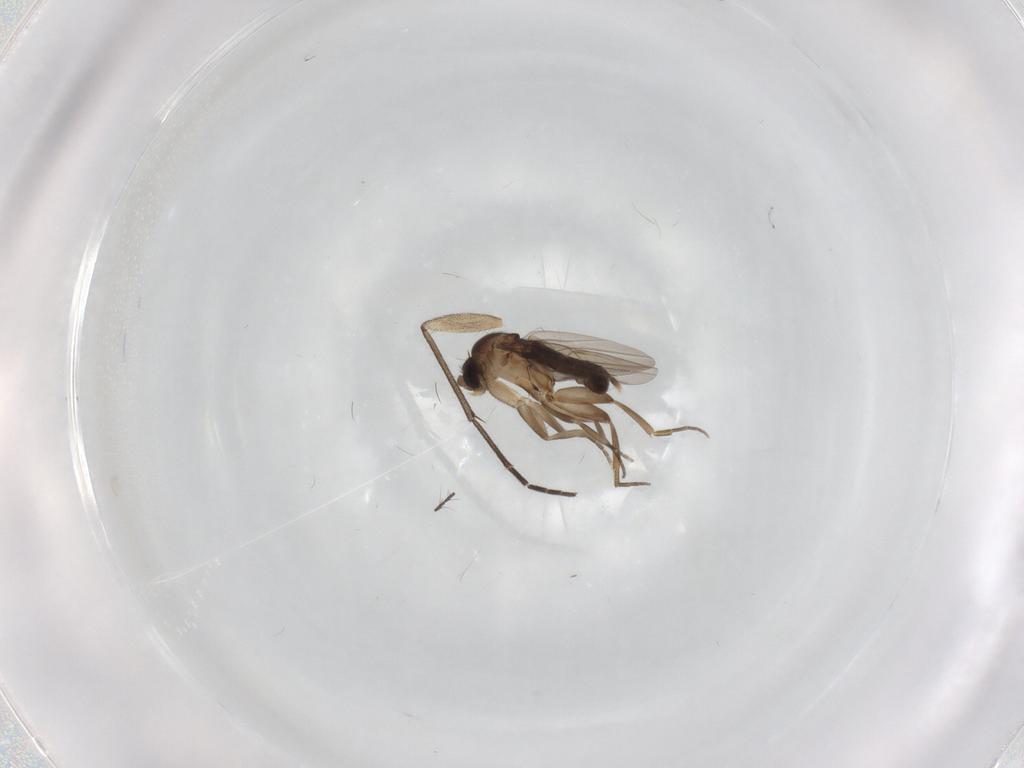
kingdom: Animalia
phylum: Arthropoda
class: Insecta
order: Diptera
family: Phoridae
